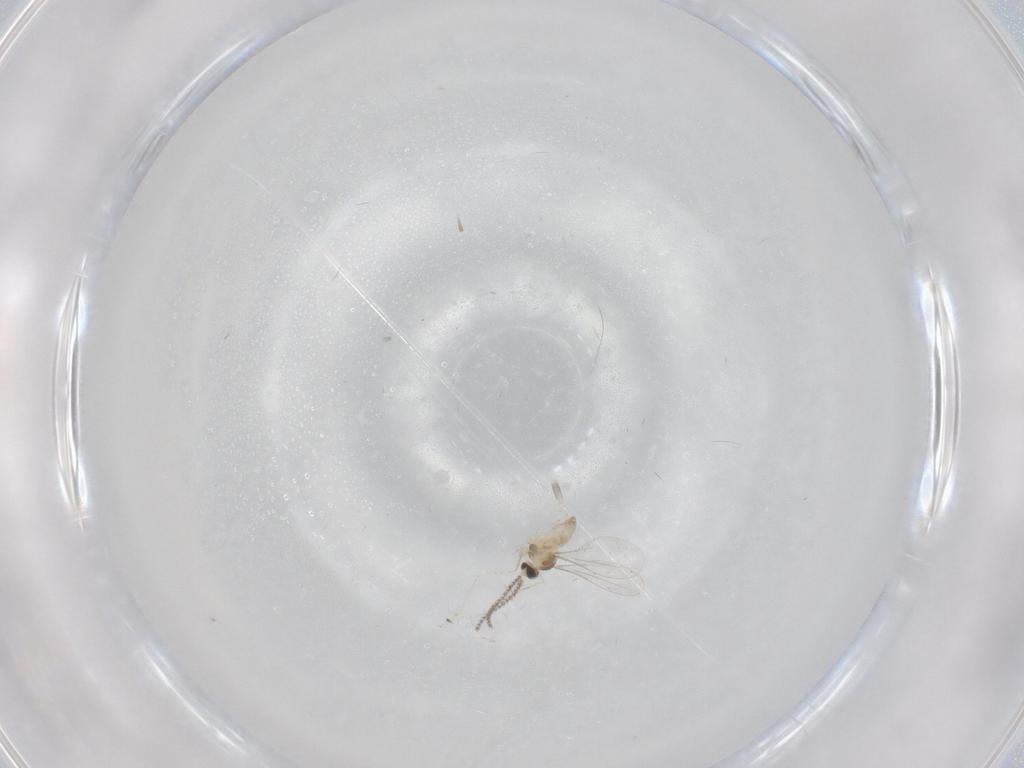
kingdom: Animalia
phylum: Arthropoda
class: Insecta
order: Diptera
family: Cecidomyiidae
